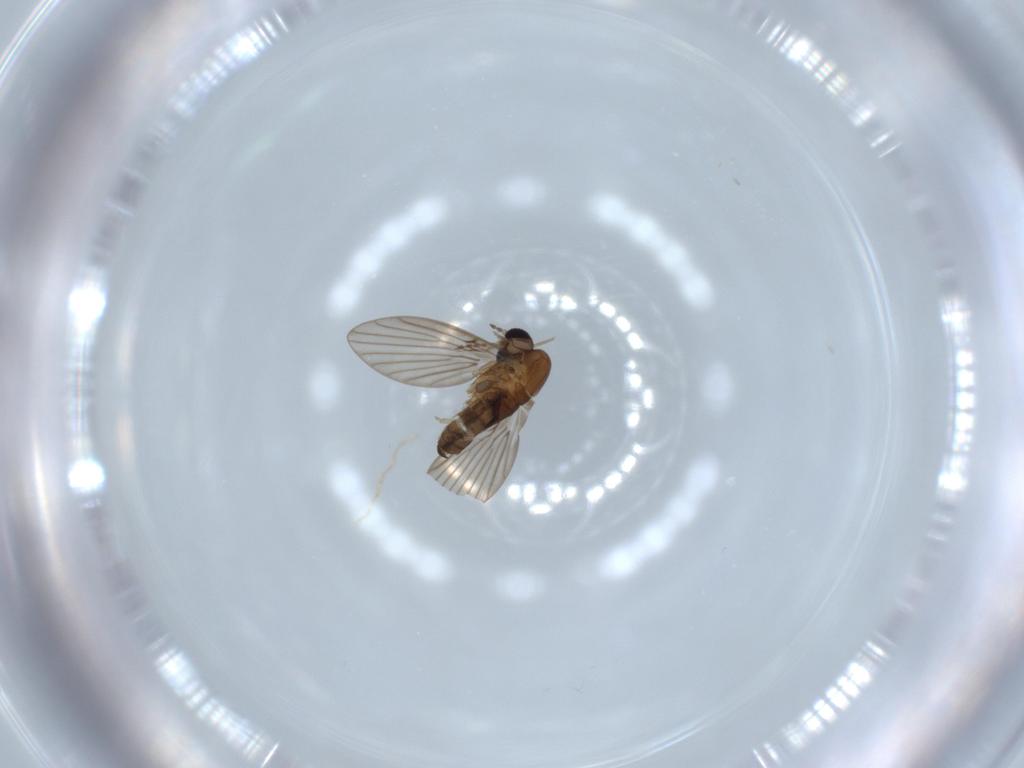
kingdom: Animalia
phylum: Arthropoda
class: Insecta
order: Diptera
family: Psychodidae
